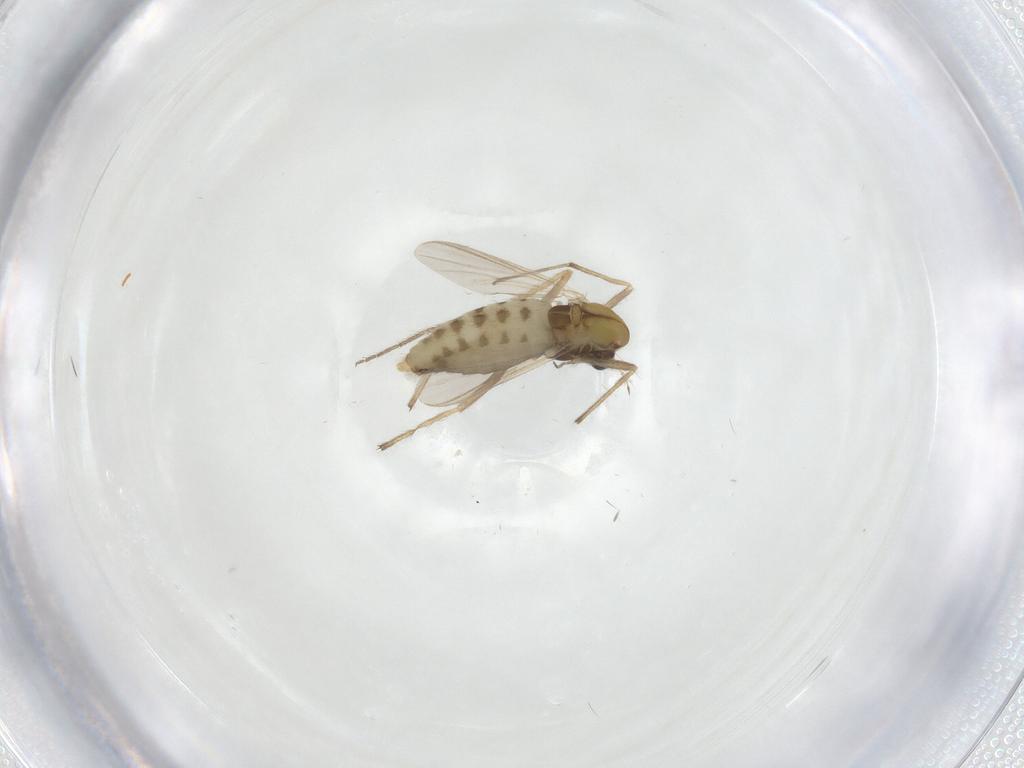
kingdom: Animalia
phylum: Arthropoda
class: Insecta
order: Diptera
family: Chironomidae
